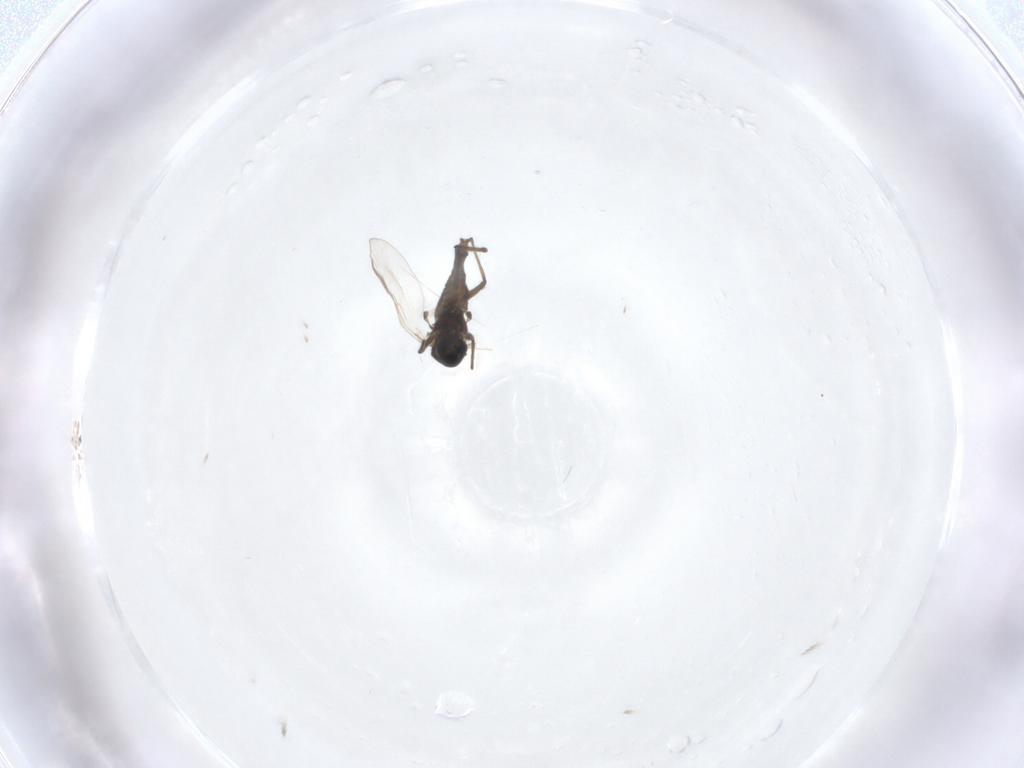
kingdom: Animalia
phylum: Arthropoda
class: Insecta
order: Diptera
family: Chironomidae
